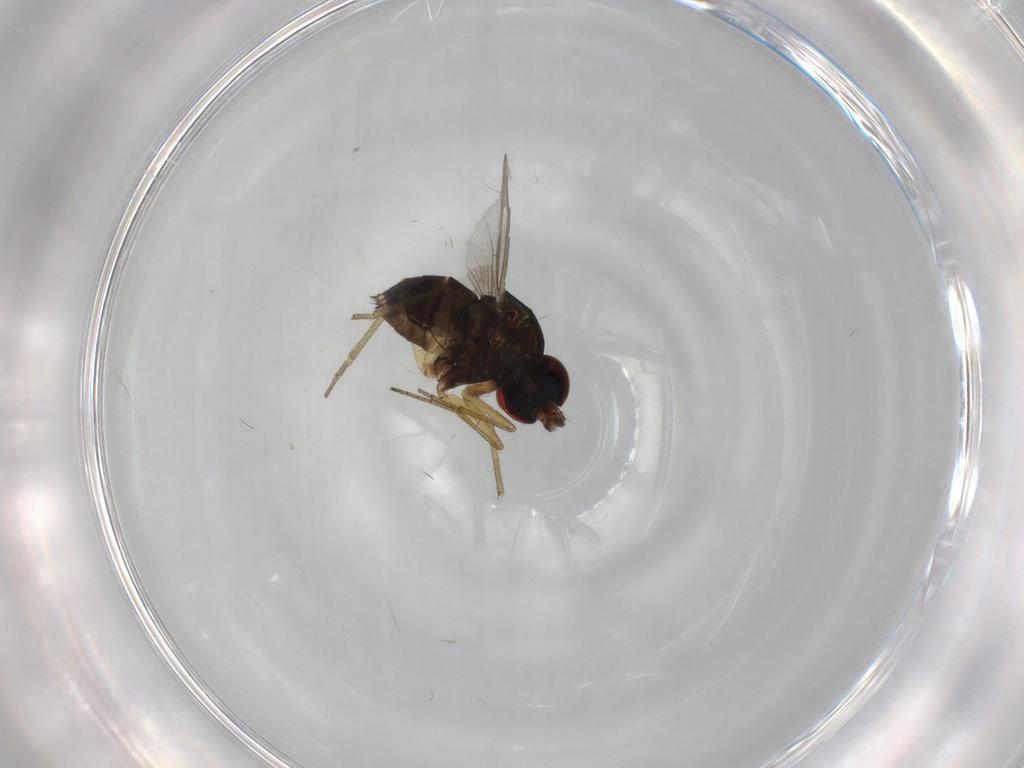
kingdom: Animalia
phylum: Arthropoda
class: Insecta
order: Diptera
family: Dolichopodidae
